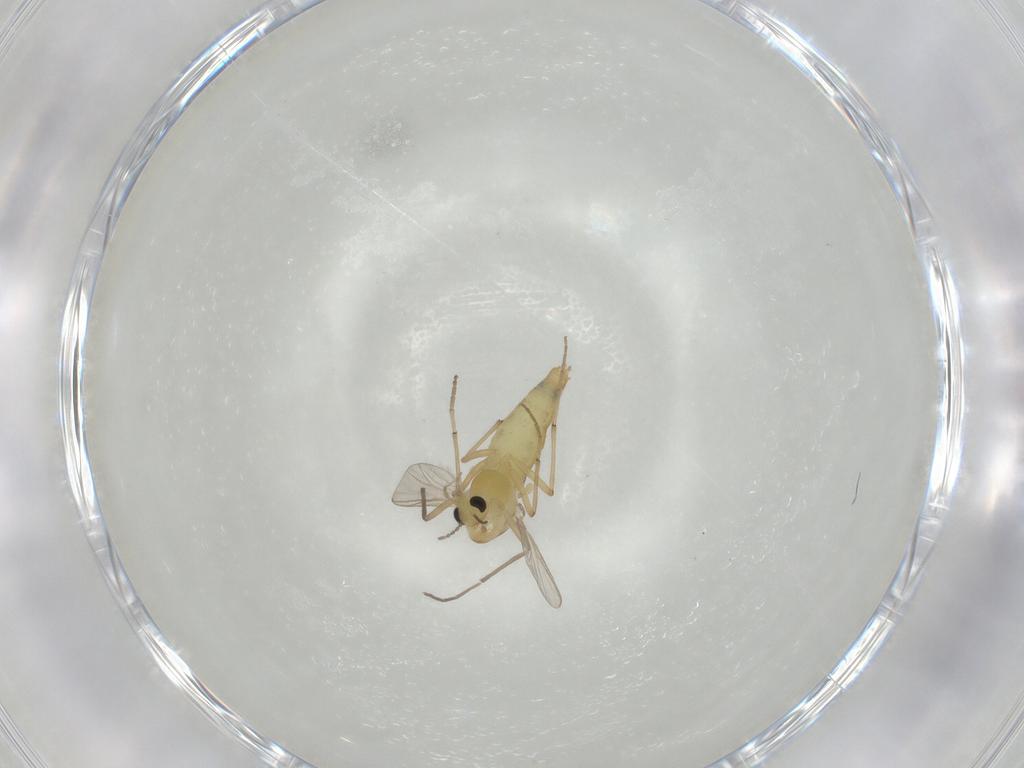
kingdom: Animalia
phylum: Arthropoda
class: Insecta
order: Diptera
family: Chironomidae
